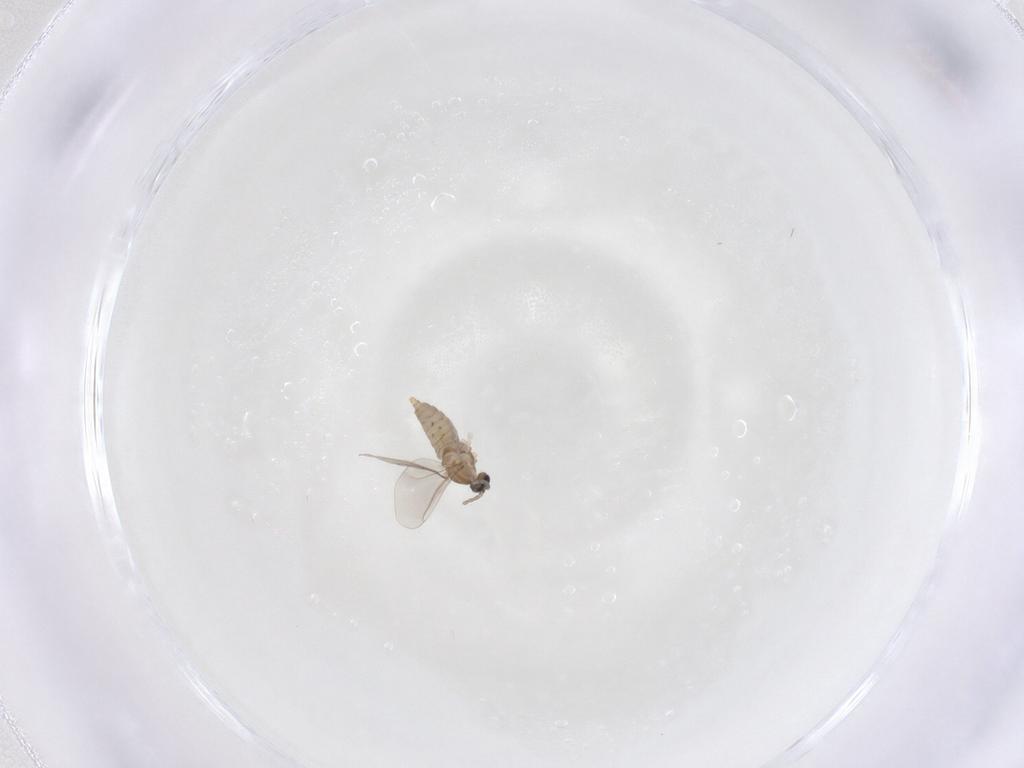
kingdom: Animalia
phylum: Arthropoda
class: Insecta
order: Diptera
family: Cecidomyiidae
